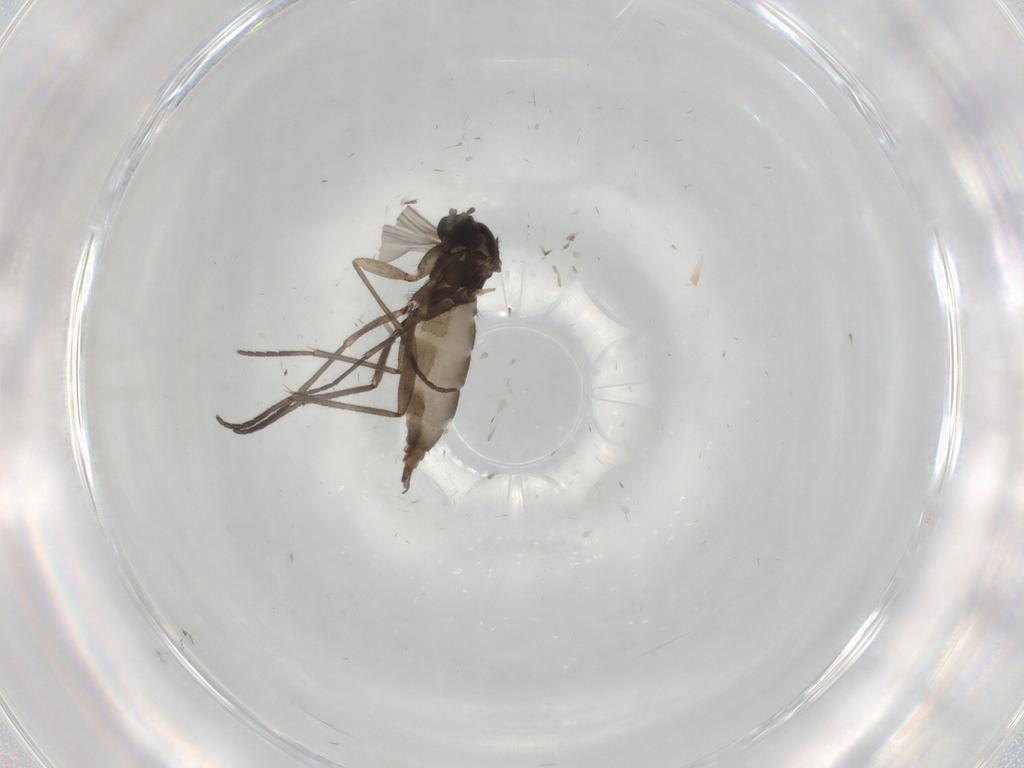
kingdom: Animalia
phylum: Arthropoda
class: Insecta
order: Diptera
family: Sciaridae
